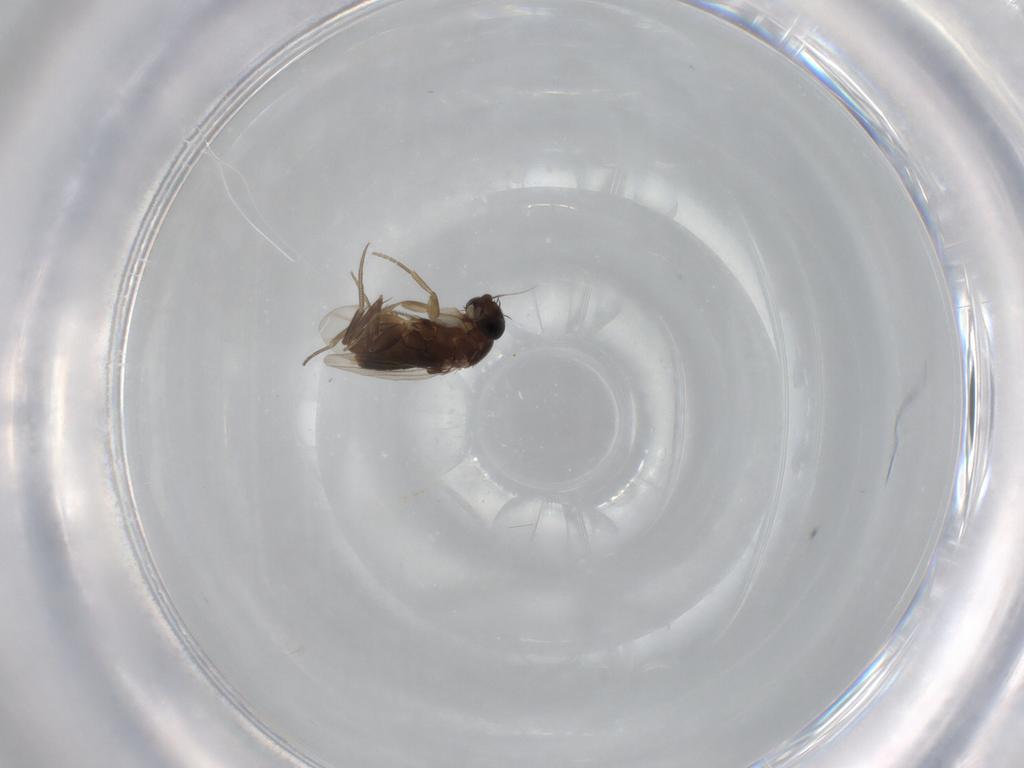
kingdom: Animalia
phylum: Arthropoda
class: Insecta
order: Diptera
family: Phoridae
